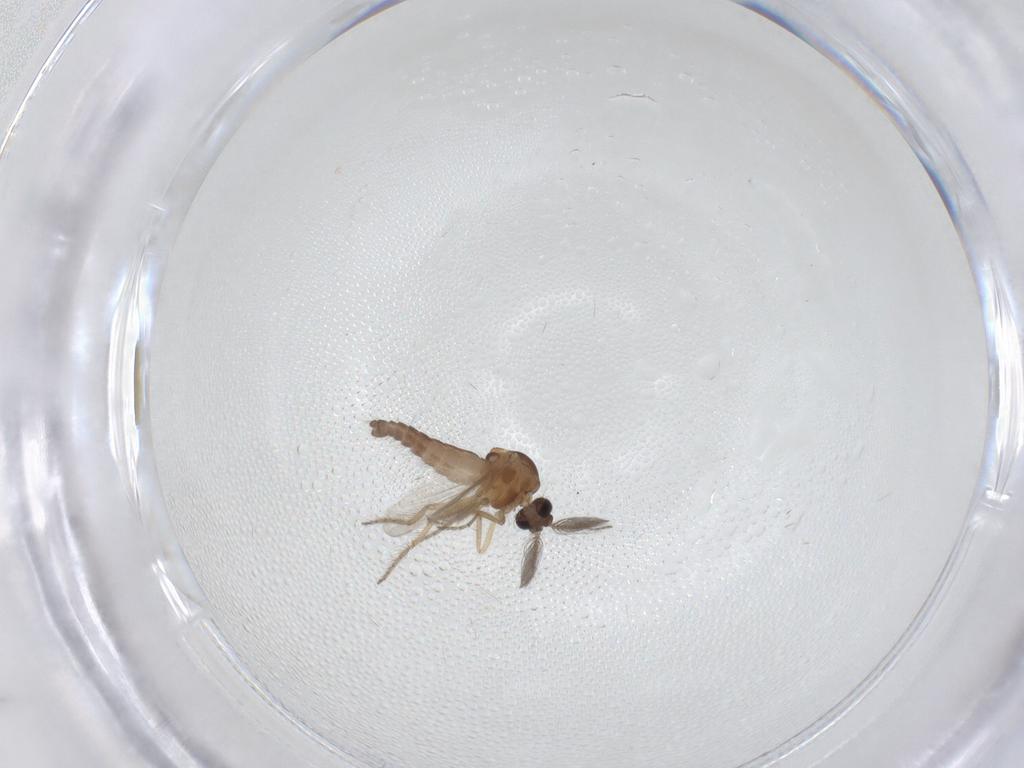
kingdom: Animalia
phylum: Arthropoda
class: Insecta
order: Diptera
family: Ceratopogonidae
